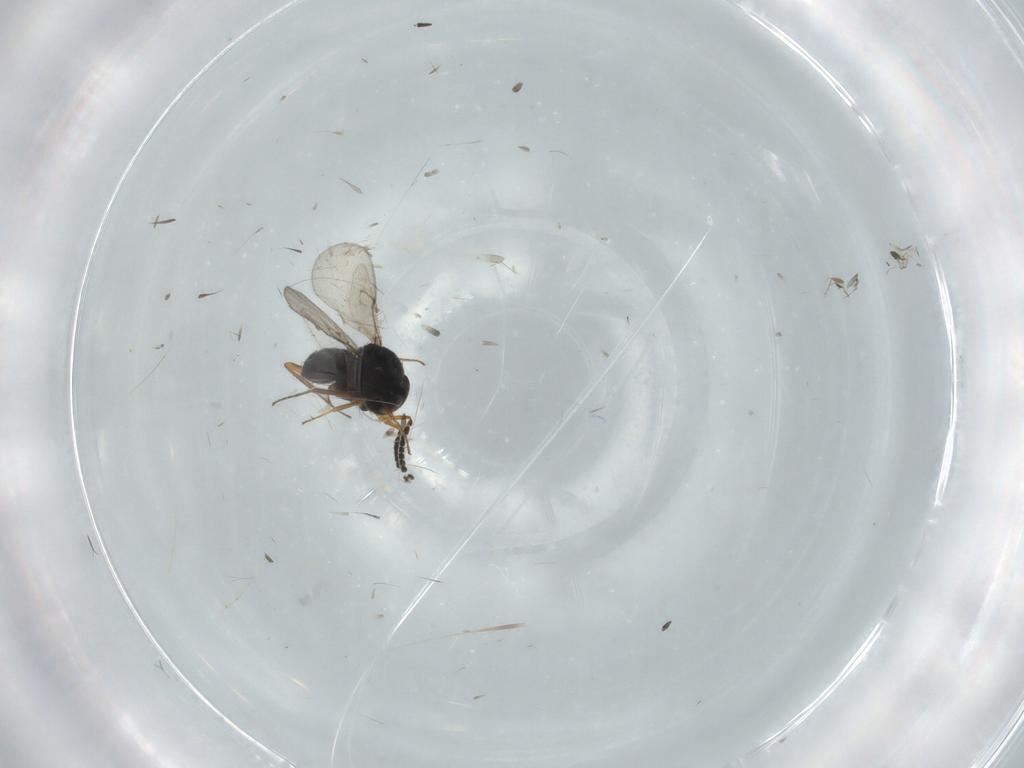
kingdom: Animalia
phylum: Arthropoda
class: Insecta
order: Hymenoptera
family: Scelionidae
